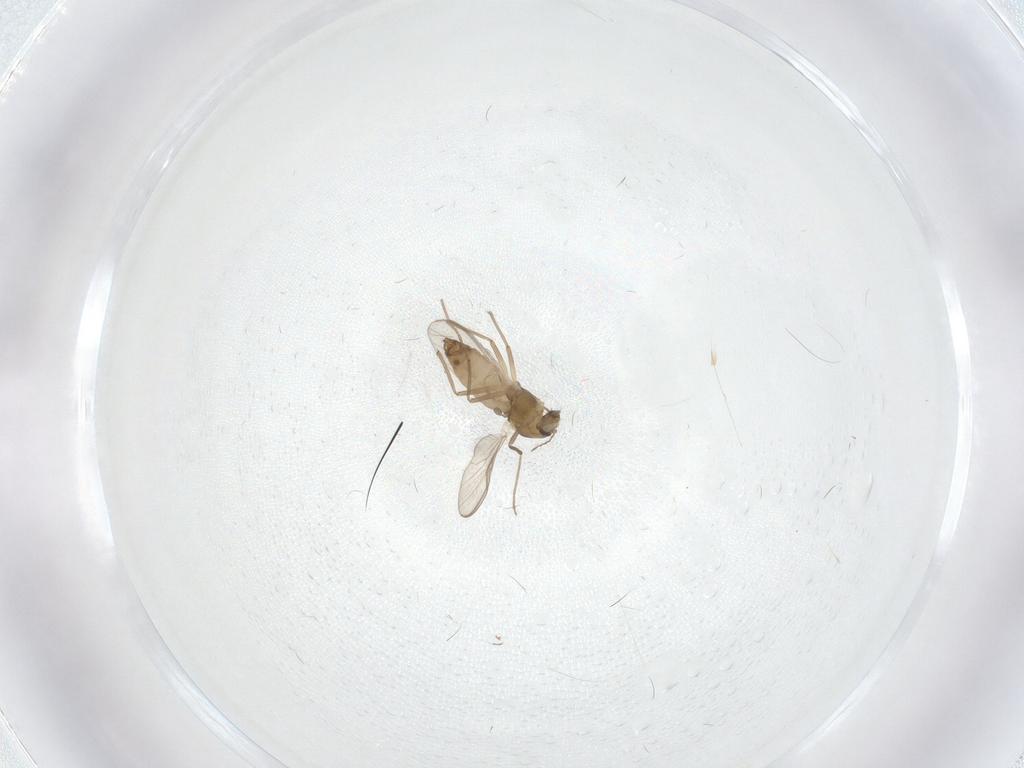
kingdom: Animalia
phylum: Arthropoda
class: Insecta
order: Diptera
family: Chironomidae
